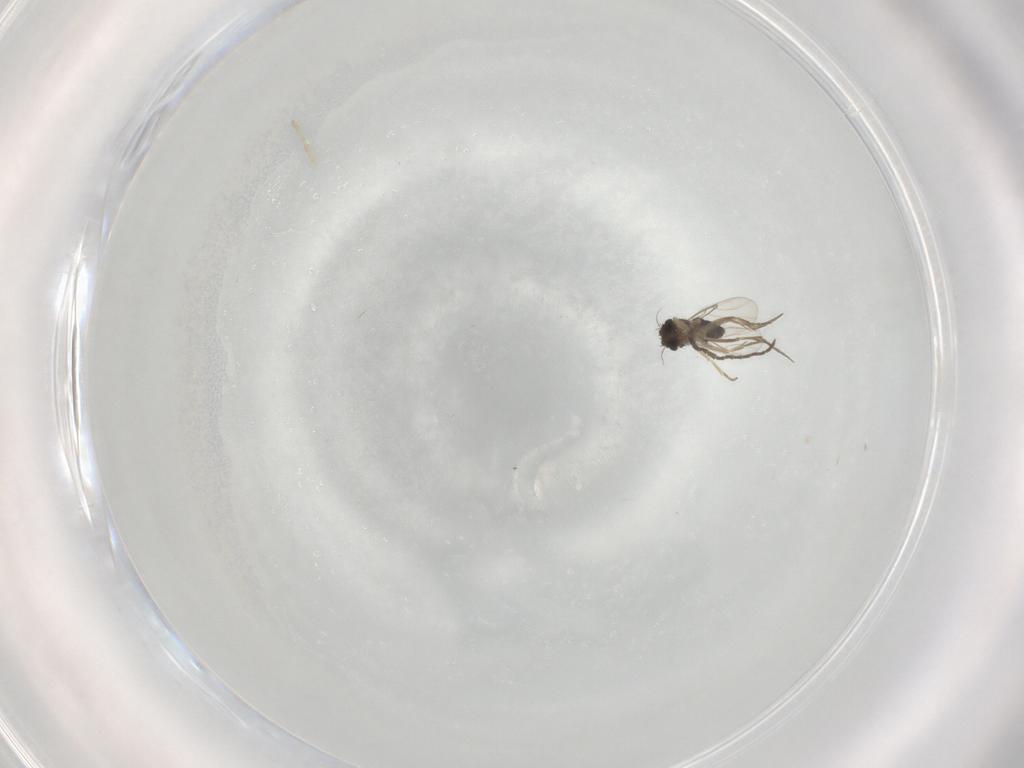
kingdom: Animalia
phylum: Arthropoda
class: Insecta
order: Diptera
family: Sciaridae
